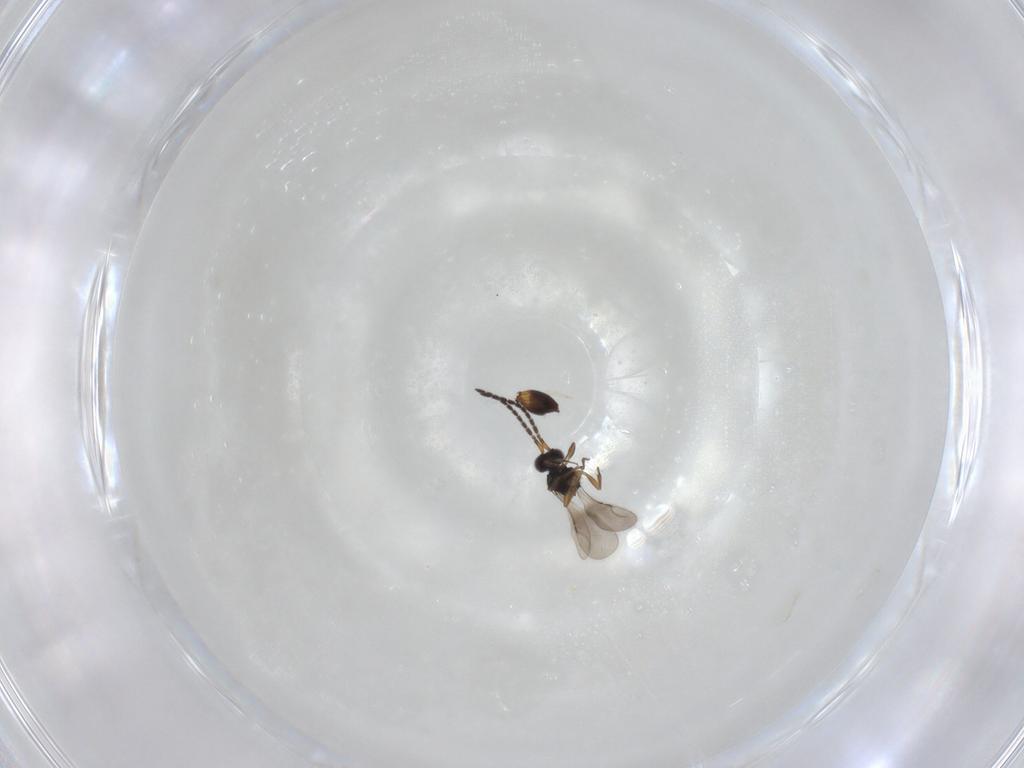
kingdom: Animalia
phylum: Arthropoda
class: Insecta
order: Hymenoptera
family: Ceraphronidae
